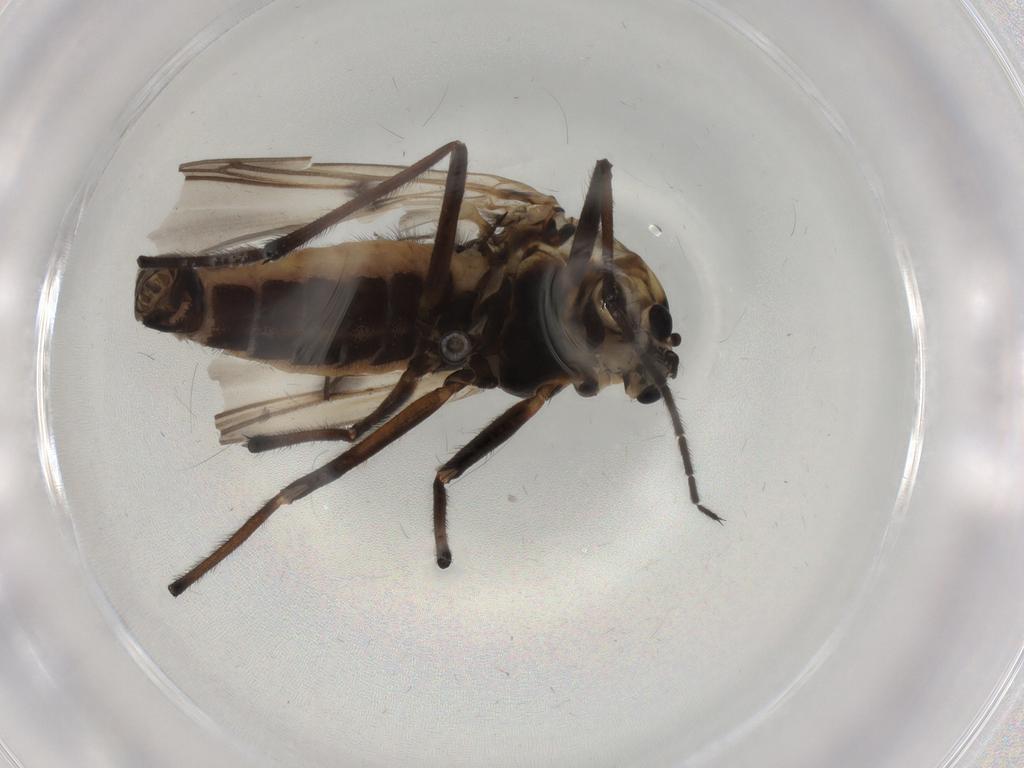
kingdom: Animalia
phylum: Arthropoda
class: Insecta
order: Diptera
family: Chironomidae
